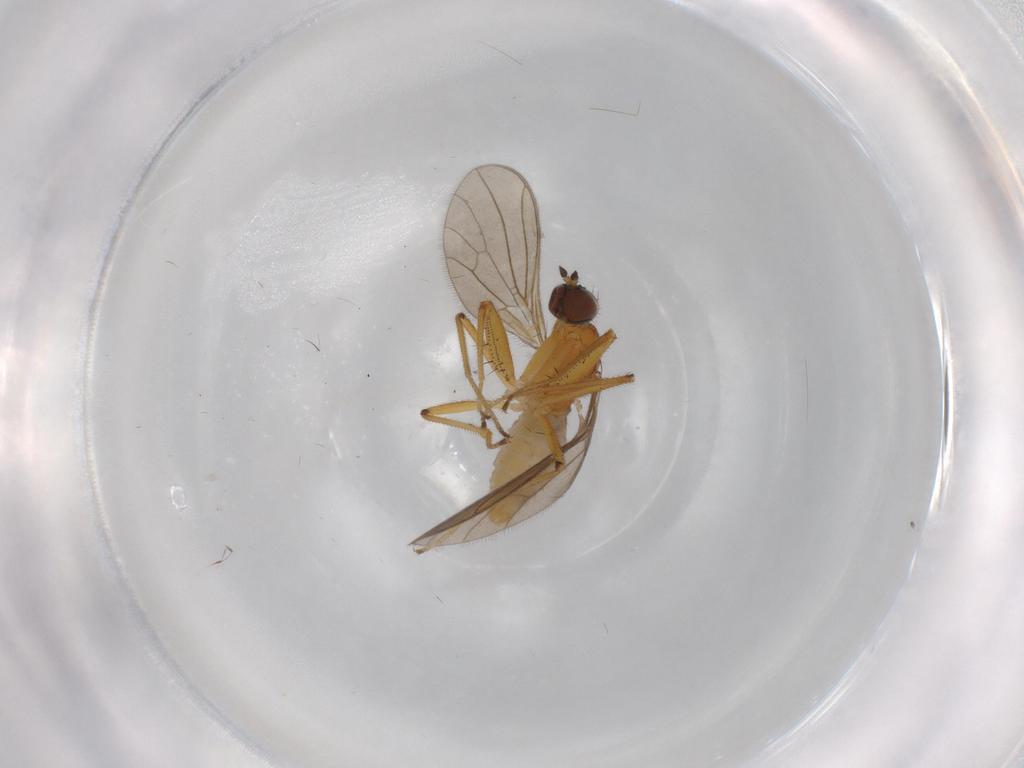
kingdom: Animalia
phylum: Arthropoda
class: Insecta
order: Diptera
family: Empididae
